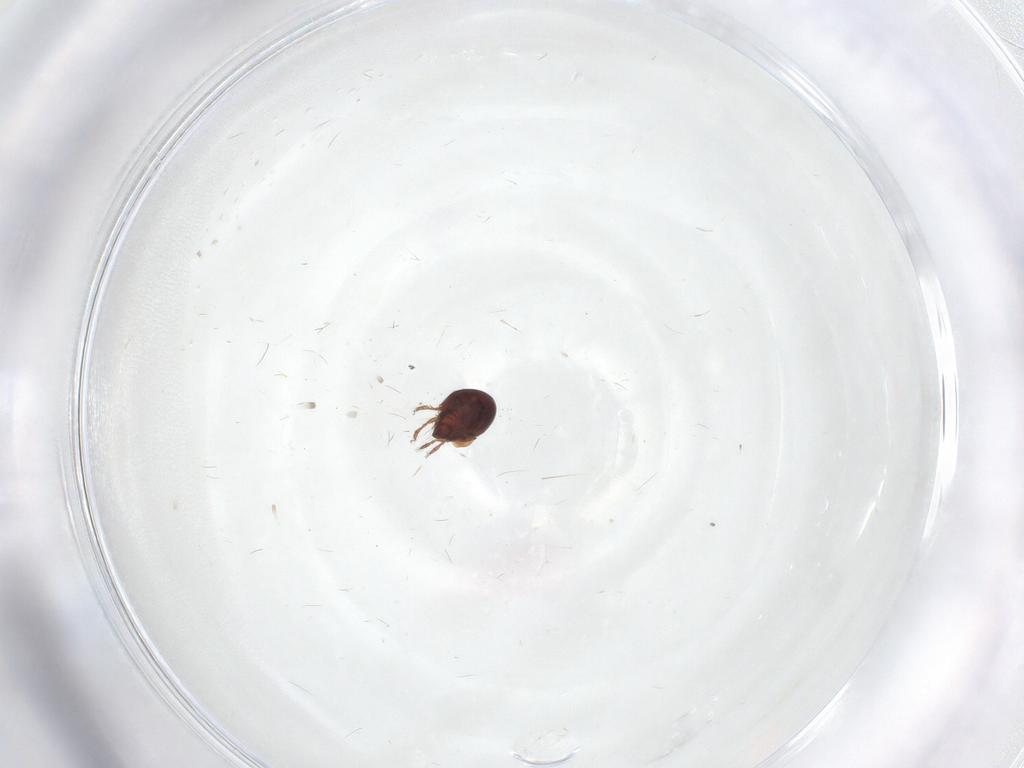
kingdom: Animalia
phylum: Arthropoda
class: Arachnida
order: Sarcoptiformes
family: Ceratozetidae
